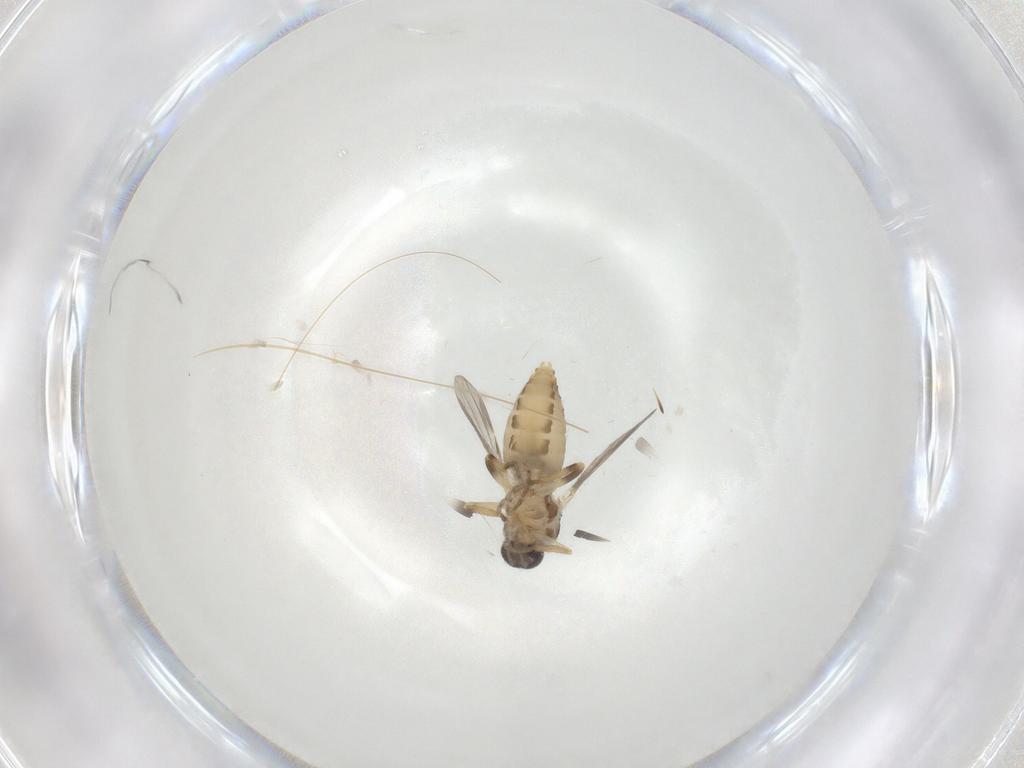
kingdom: Animalia
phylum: Arthropoda
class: Insecta
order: Diptera
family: Ceratopogonidae
